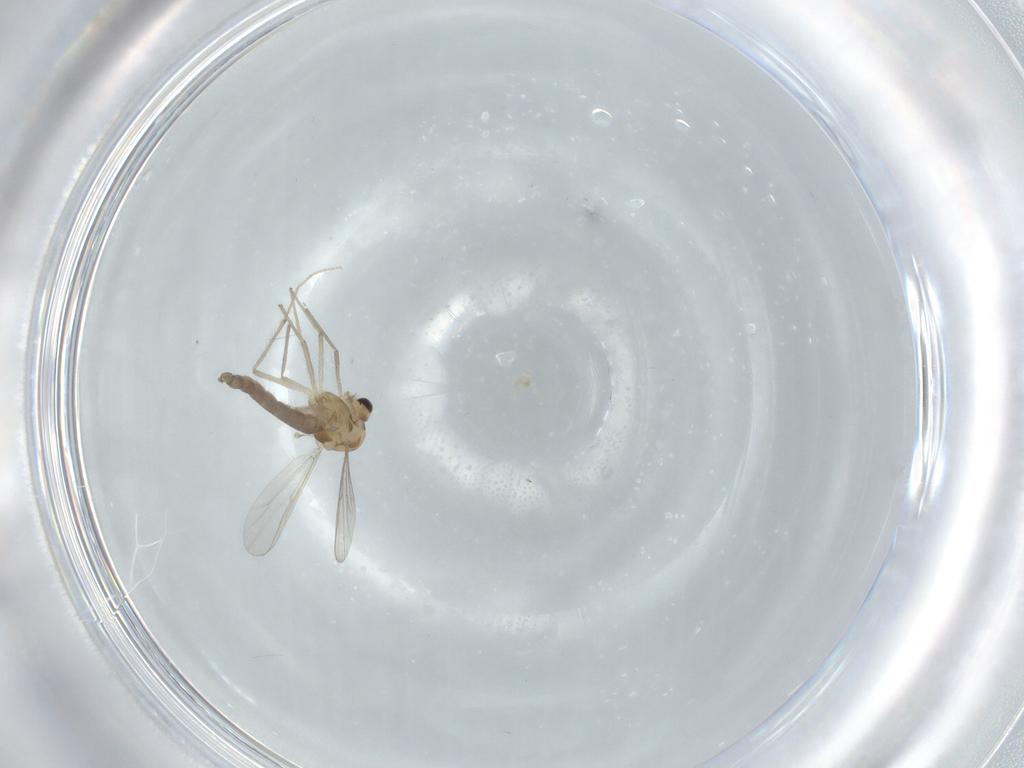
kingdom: Animalia
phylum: Arthropoda
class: Insecta
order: Diptera
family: Chironomidae
